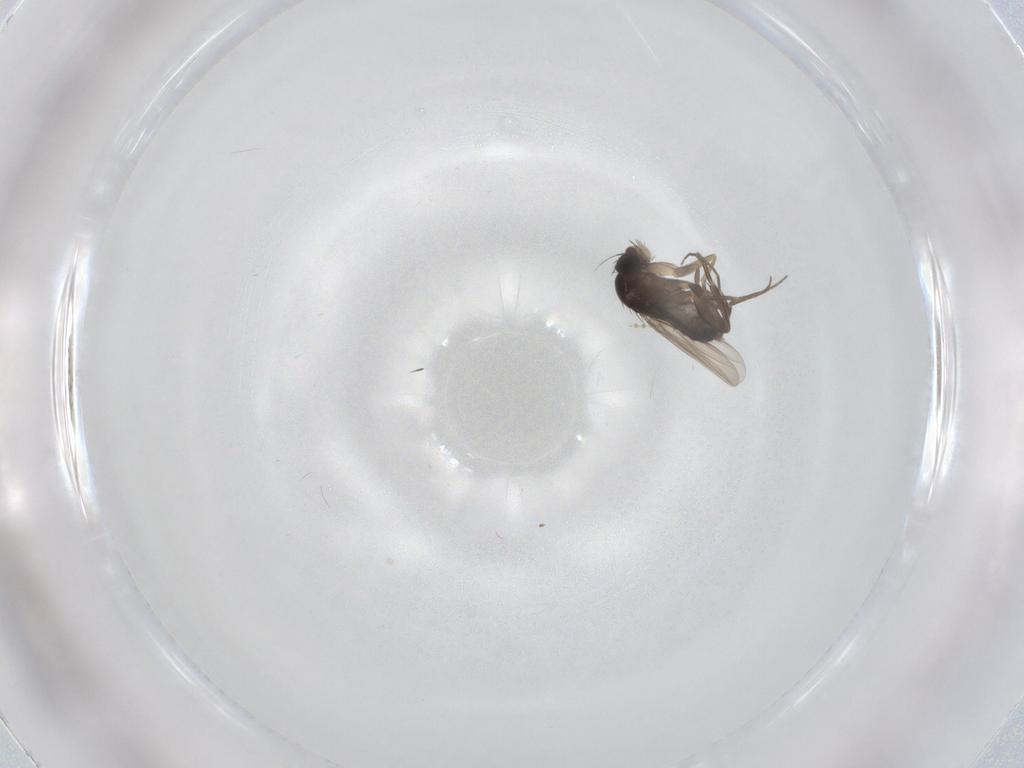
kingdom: Animalia
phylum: Arthropoda
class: Insecta
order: Diptera
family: Phoridae
